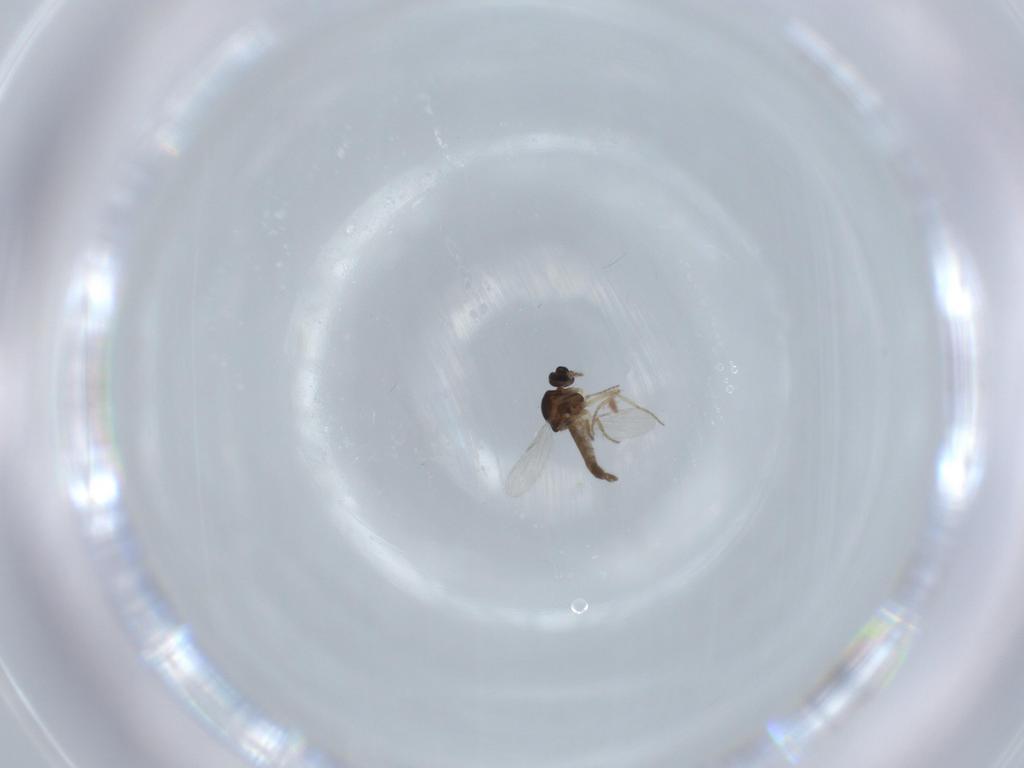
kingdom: Animalia
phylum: Arthropoda
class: Insecta
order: Diptera
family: Ceratopogonidae
